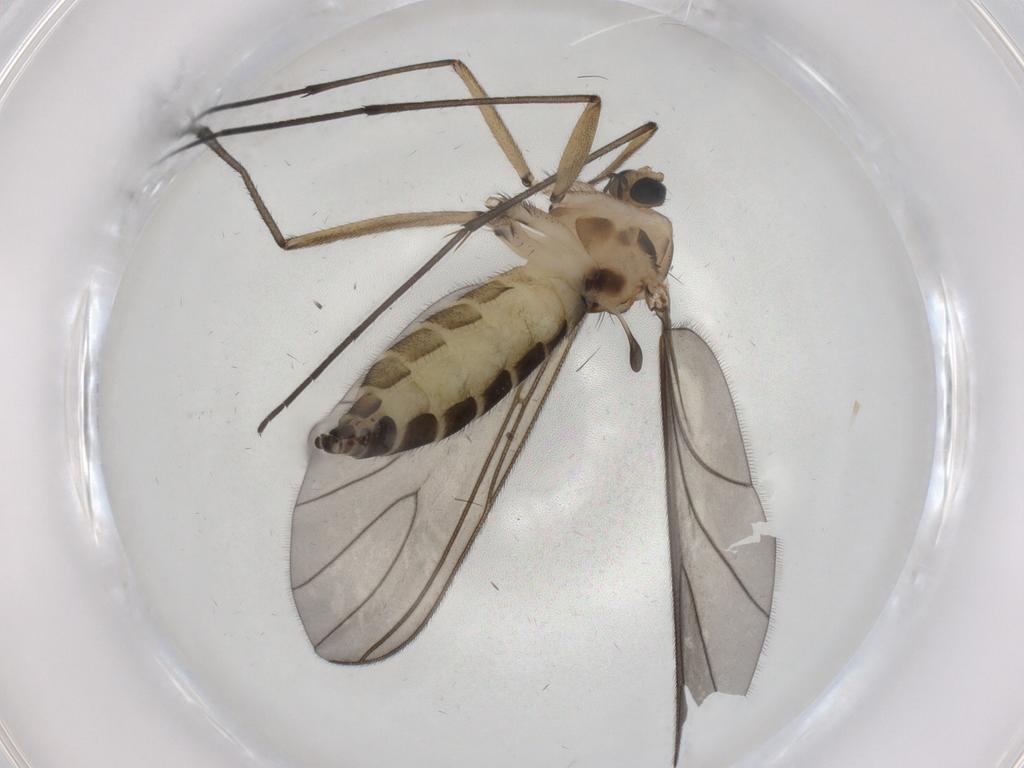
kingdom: Animalia
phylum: Arthropoda
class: Insecta
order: Diptera
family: Sciaridae
